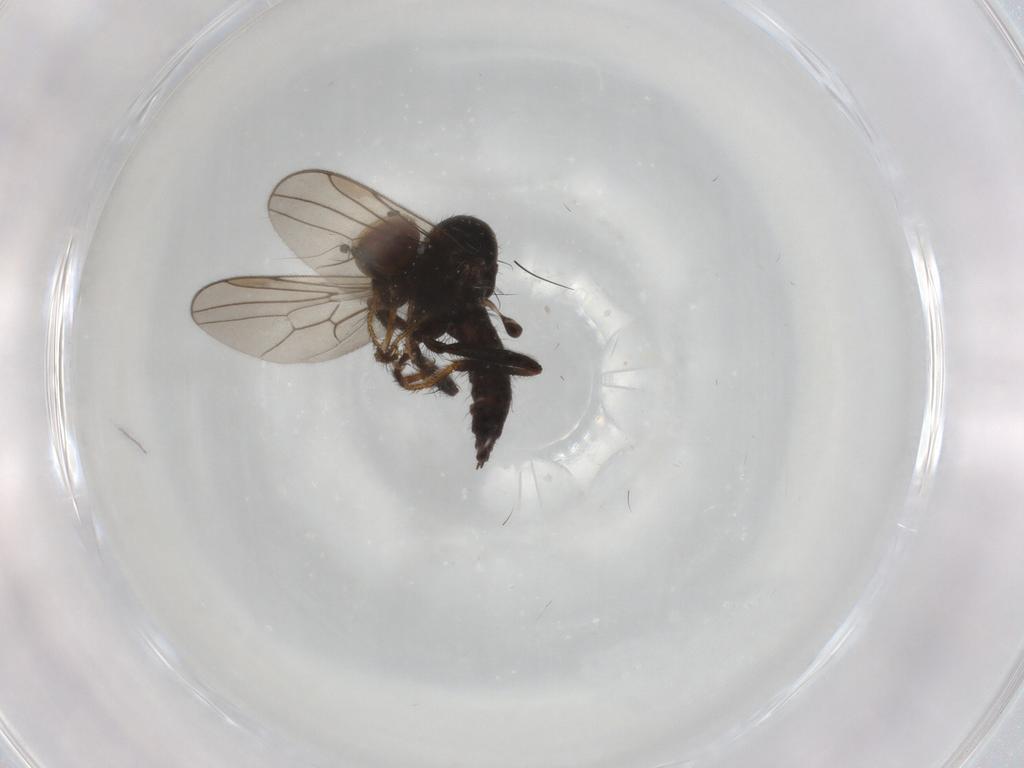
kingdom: Animalia
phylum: Arthropoda
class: Insecta
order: Diptera
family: Hybotidae
